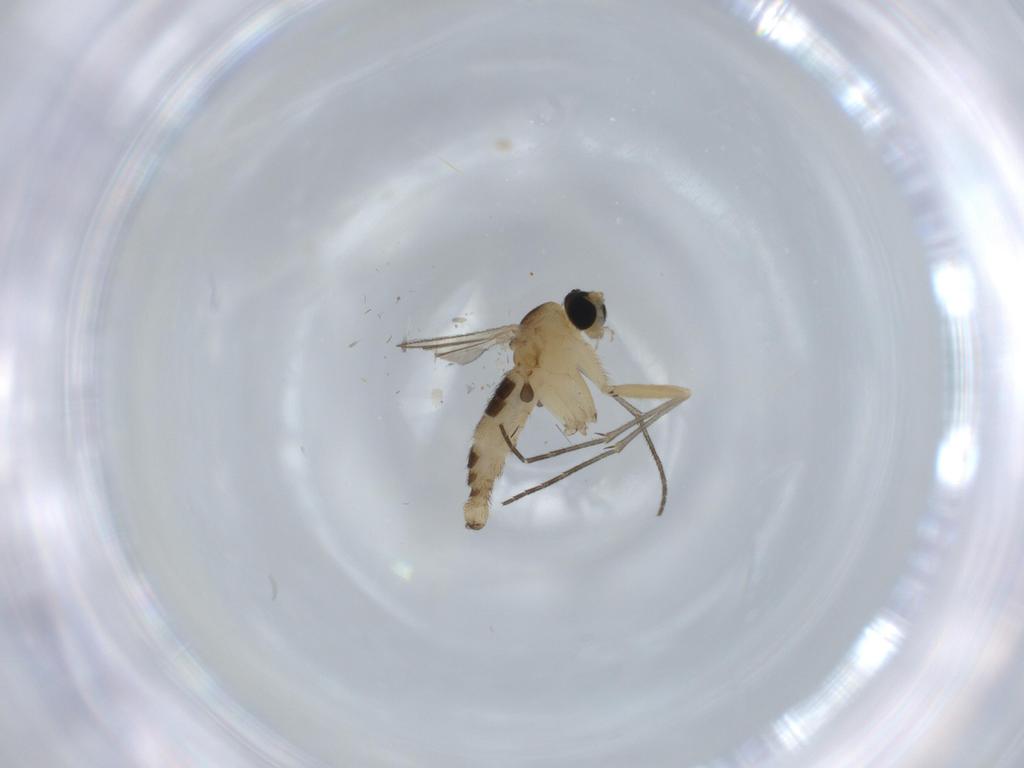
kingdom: Animalia
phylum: Arthropoda
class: Insecta
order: Diptera
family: Sciaridae
